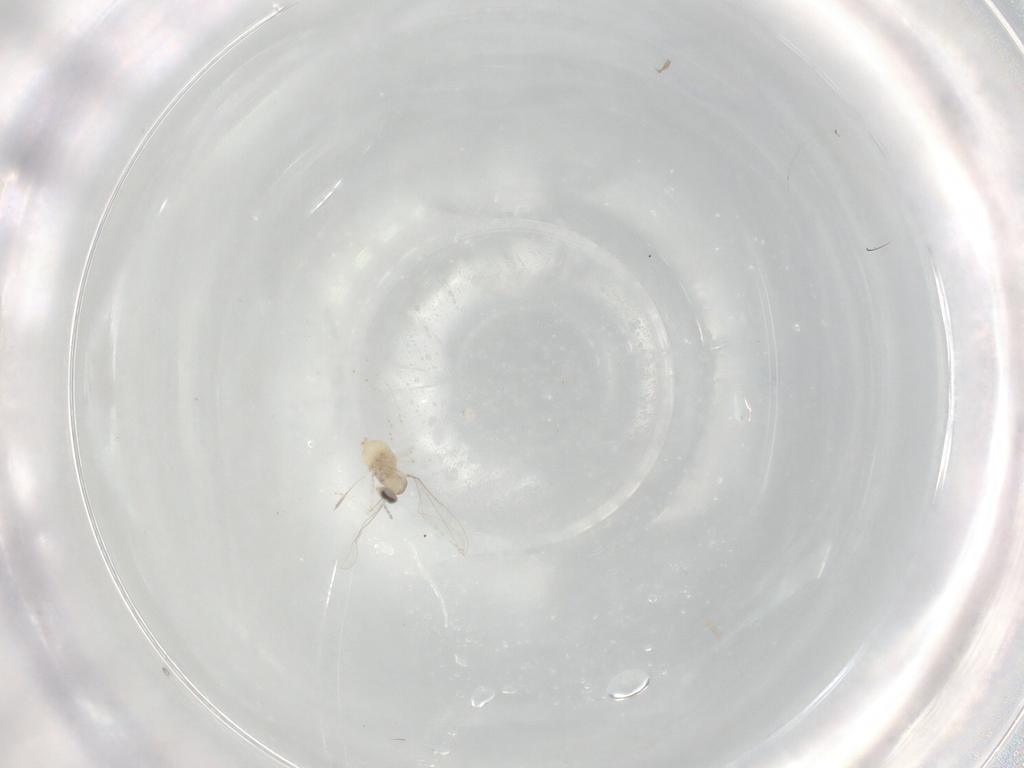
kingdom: Animalia
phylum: Arthropoda
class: Insecta
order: Diptera
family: Cecidomyiidae
